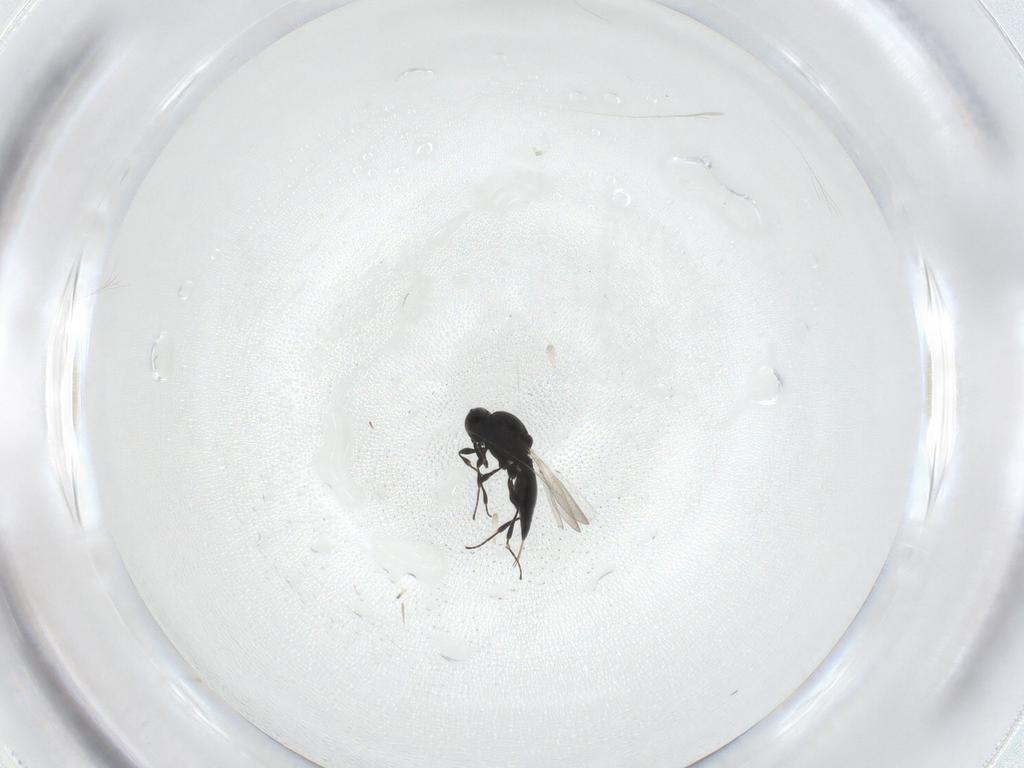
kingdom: Animalia
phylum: Arthropoda
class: Insecta
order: Hymenoptera
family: Platygastridae
